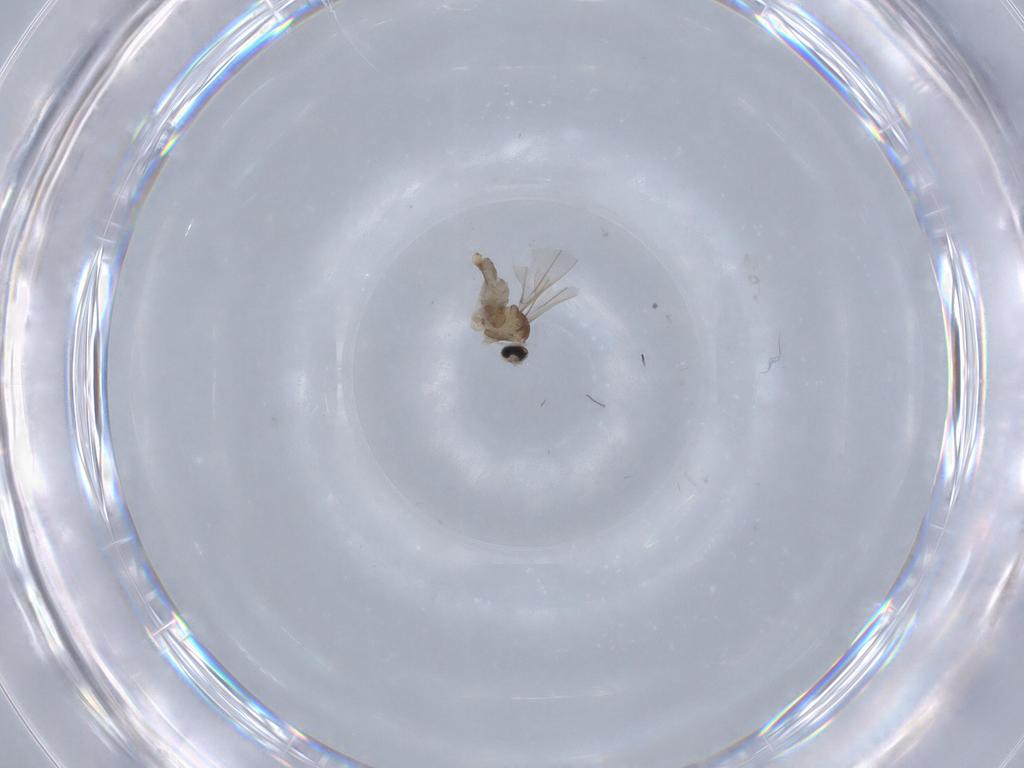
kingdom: Animalia
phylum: Arthropoda
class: Insecta
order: Diptera
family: Cecidomyiidae
